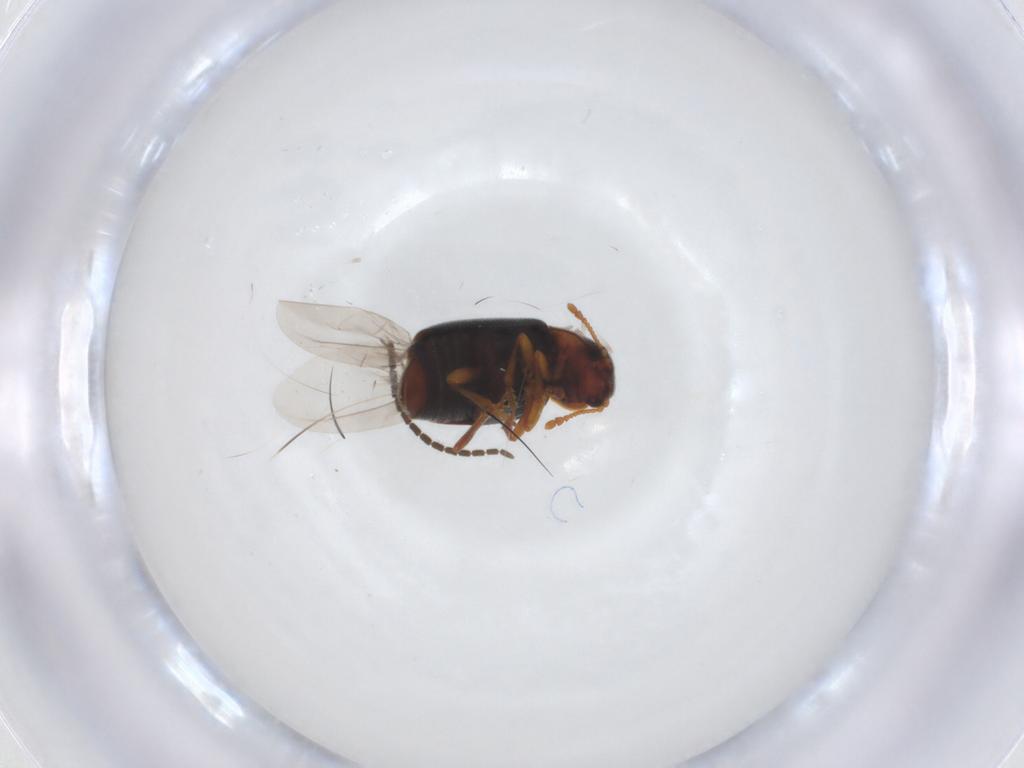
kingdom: Animalia
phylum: Arthropoda
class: Insecta
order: Coleoptera
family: Kateretidae
